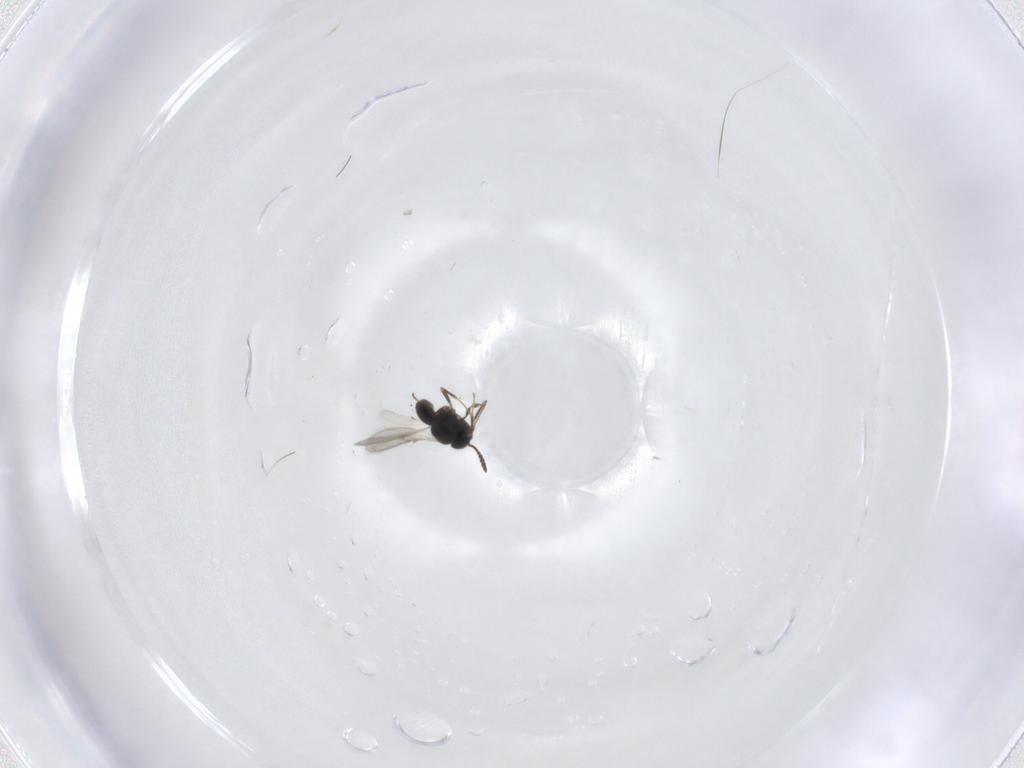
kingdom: Animalia
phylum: Arthropoda
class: Insecta
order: Hymenoptera
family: Scelionidae
